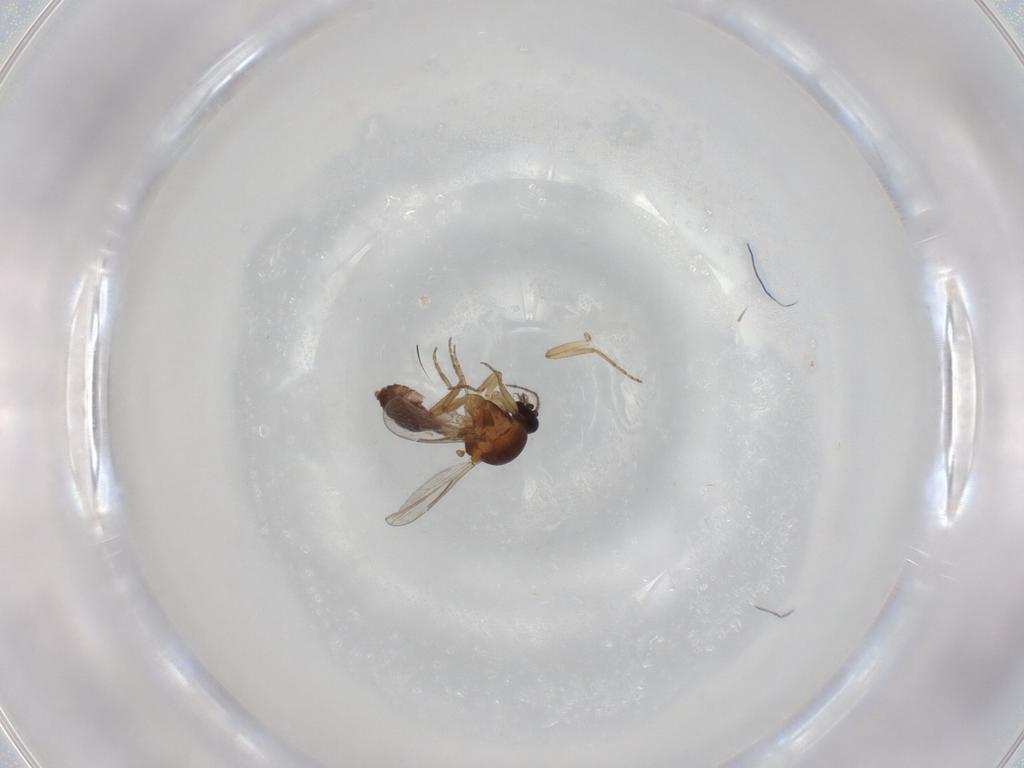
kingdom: Animalia
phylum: Arthropoda
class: Insecta
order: Diptera
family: Ceratopogonidae
